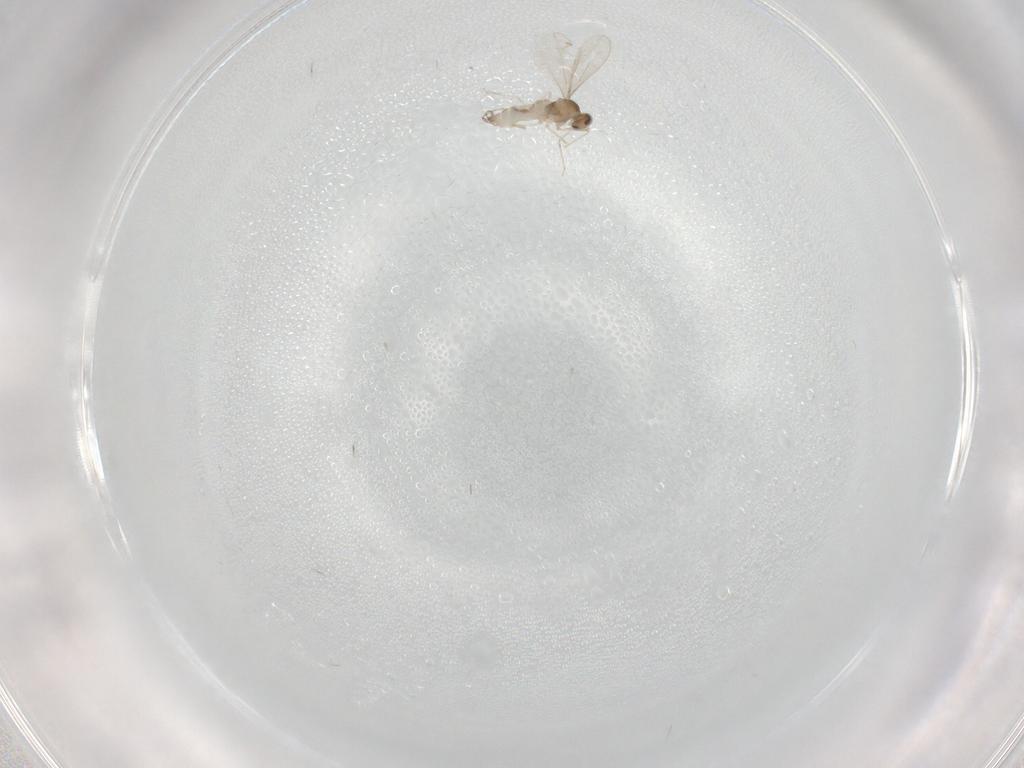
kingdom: Animalia
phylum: Arthropoda
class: Insecta
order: Diptera
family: Cecidomyiidae
